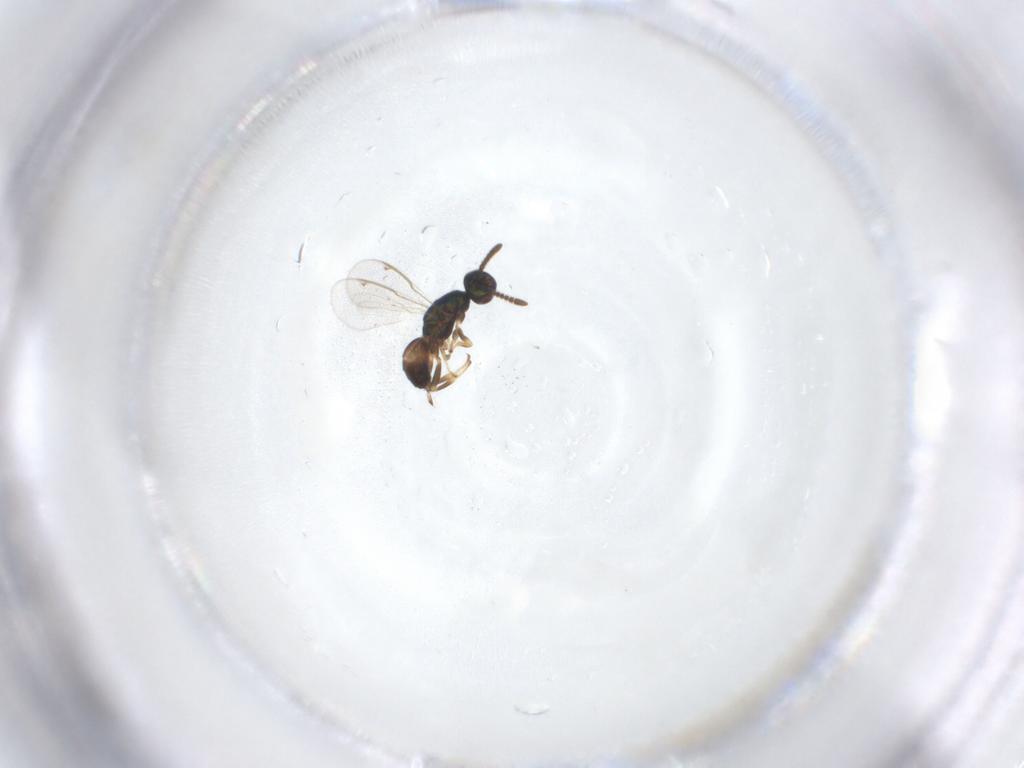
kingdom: Animalia
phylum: Arthropoda
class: Insecta
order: Hymenoptera
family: Torymidae
